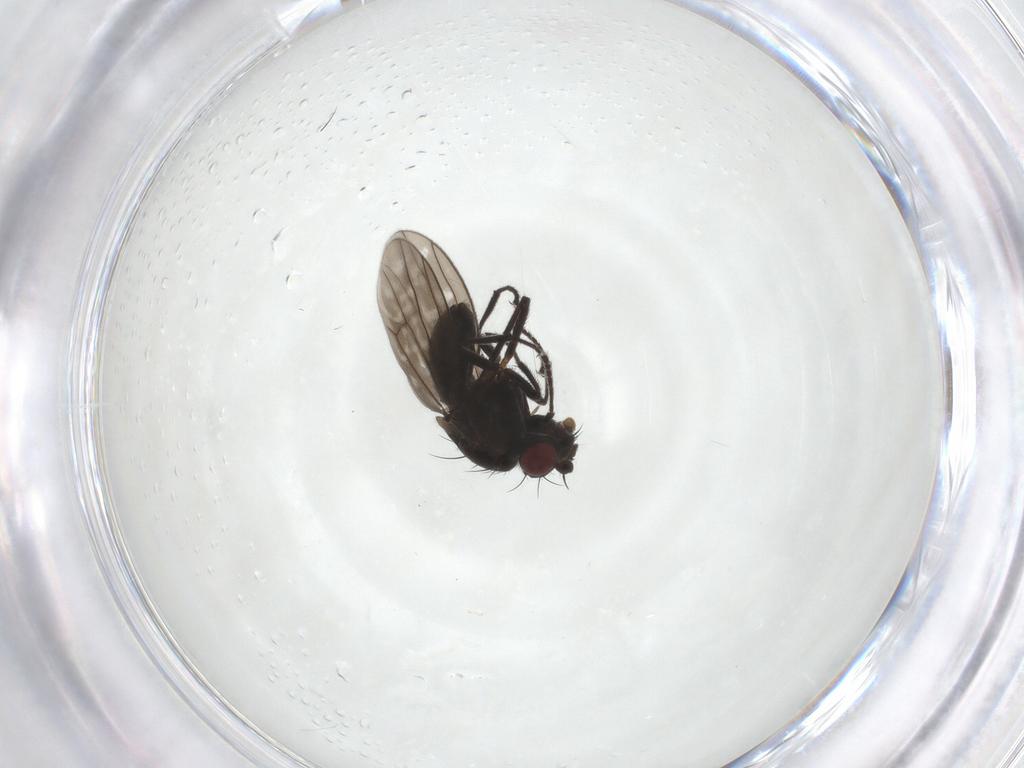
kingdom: Animalia
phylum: Arthropoda
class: Insecta
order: Diptera
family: Ephydridae
